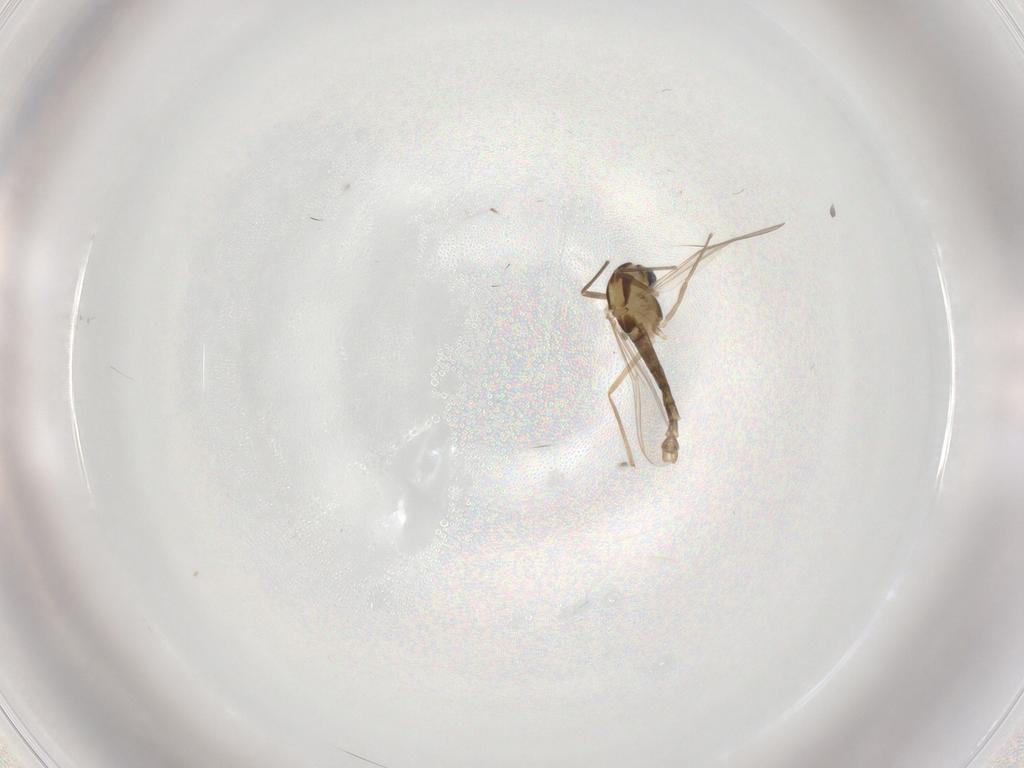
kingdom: Animalia
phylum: Arthropoda
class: Insecta
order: Diptera
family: Chironomidae
